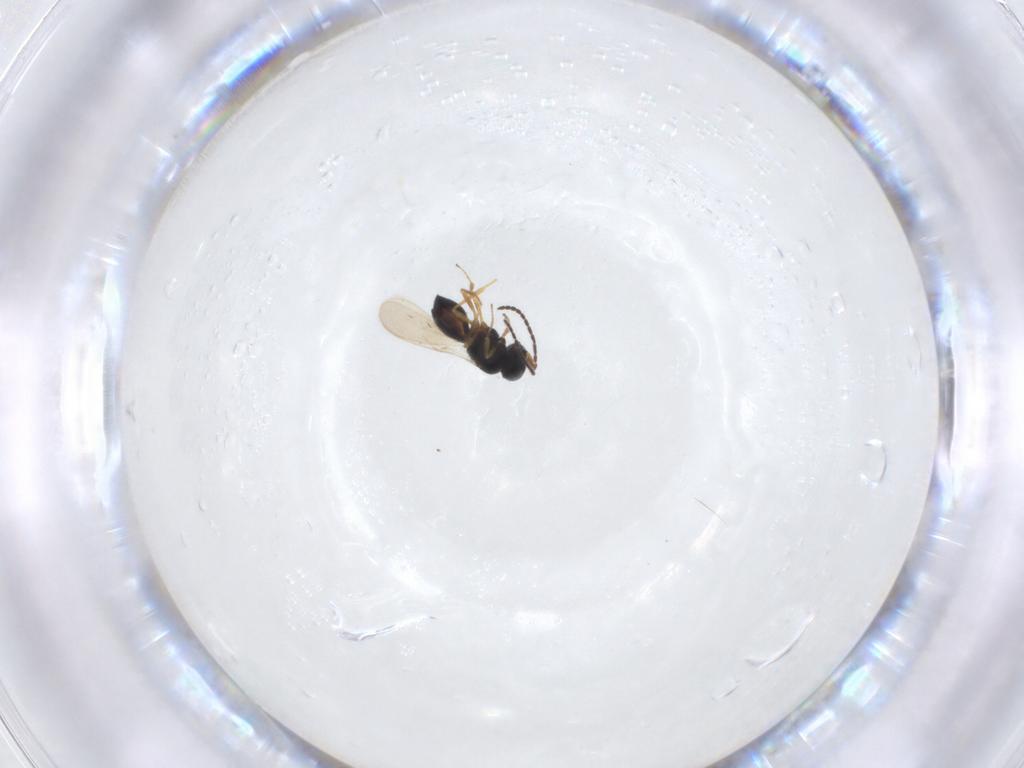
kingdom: Animalia
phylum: Arthropoda
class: Insecta
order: Hymenoptera
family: Scelionidae
